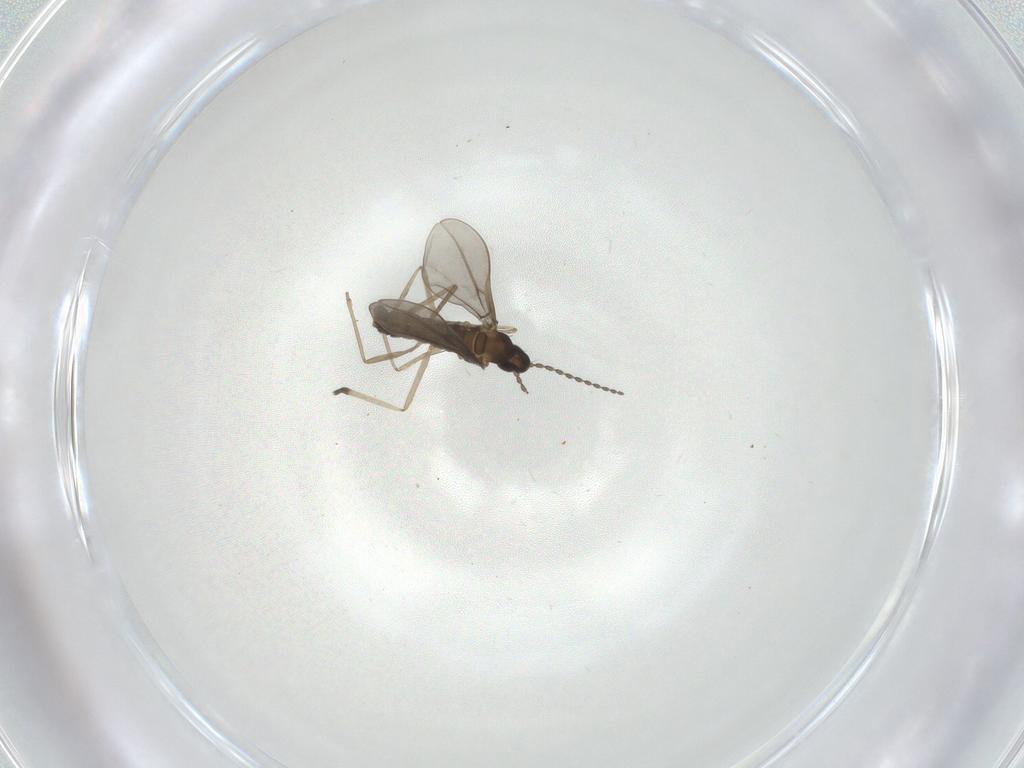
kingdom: Animalia
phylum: Arthropoda
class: Insecta
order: Diptera
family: Cecidomyiidae
